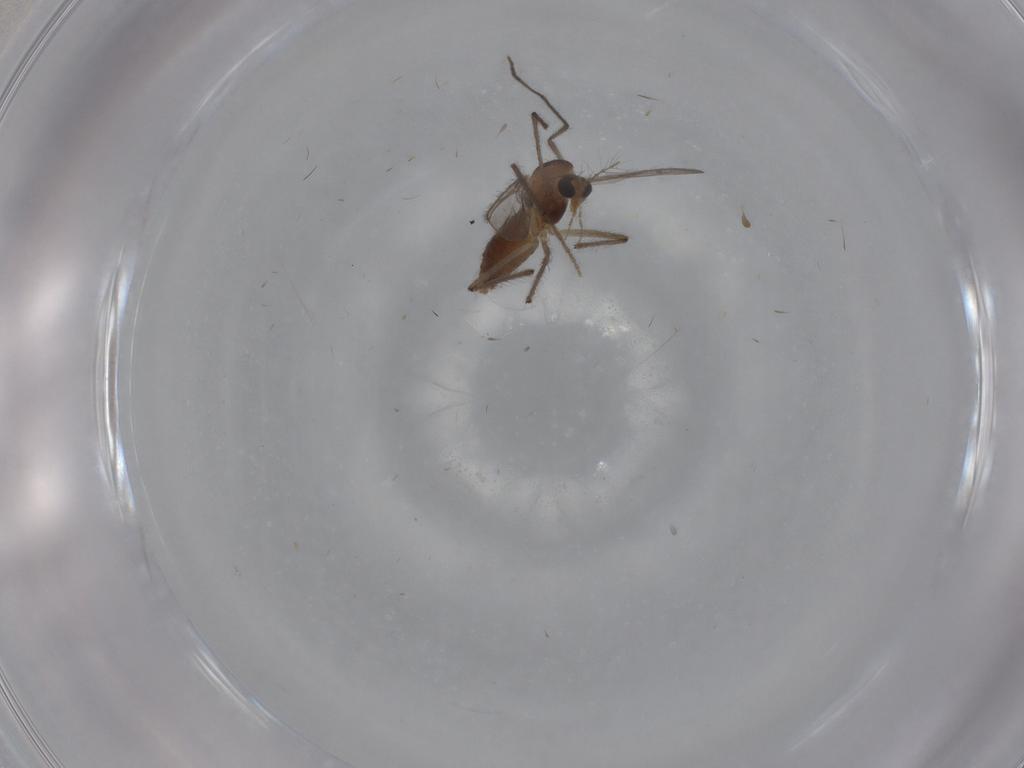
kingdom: Animalia
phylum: Arthropoda
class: Insecta
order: Diptera
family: Chironomidae
